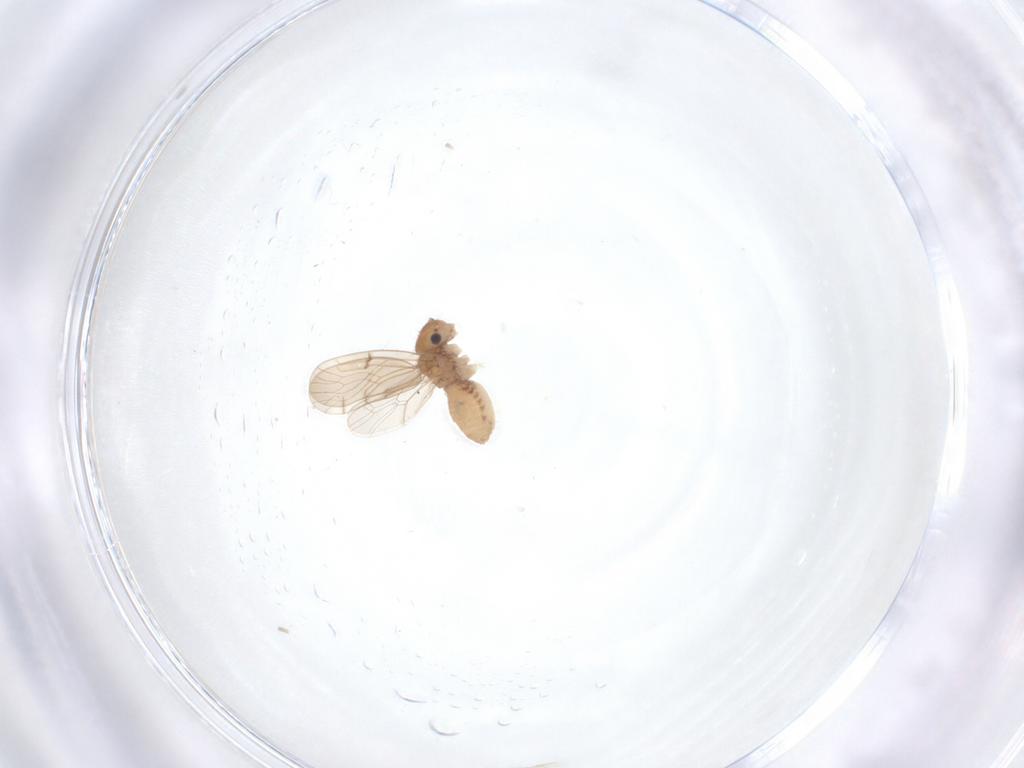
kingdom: Animalia
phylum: Arthropoda
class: Insecta
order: Psocodea
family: Ectopsocidae
